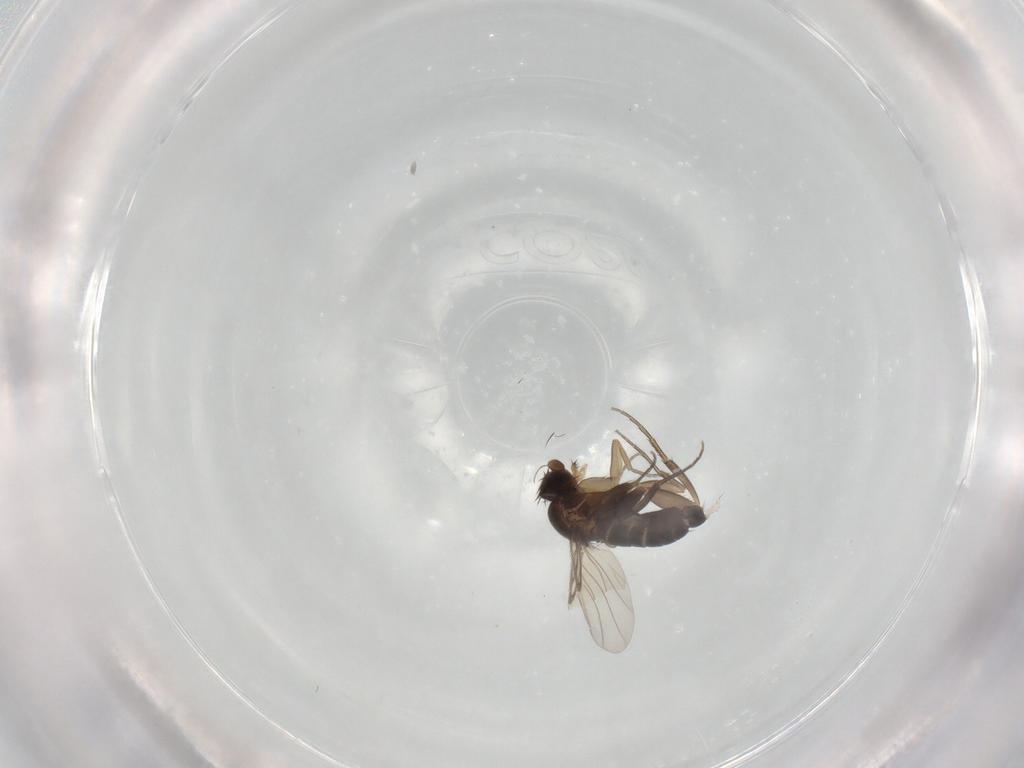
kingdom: Animalia
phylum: Arthropoda
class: Insecta
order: Diptera
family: Phoridae
